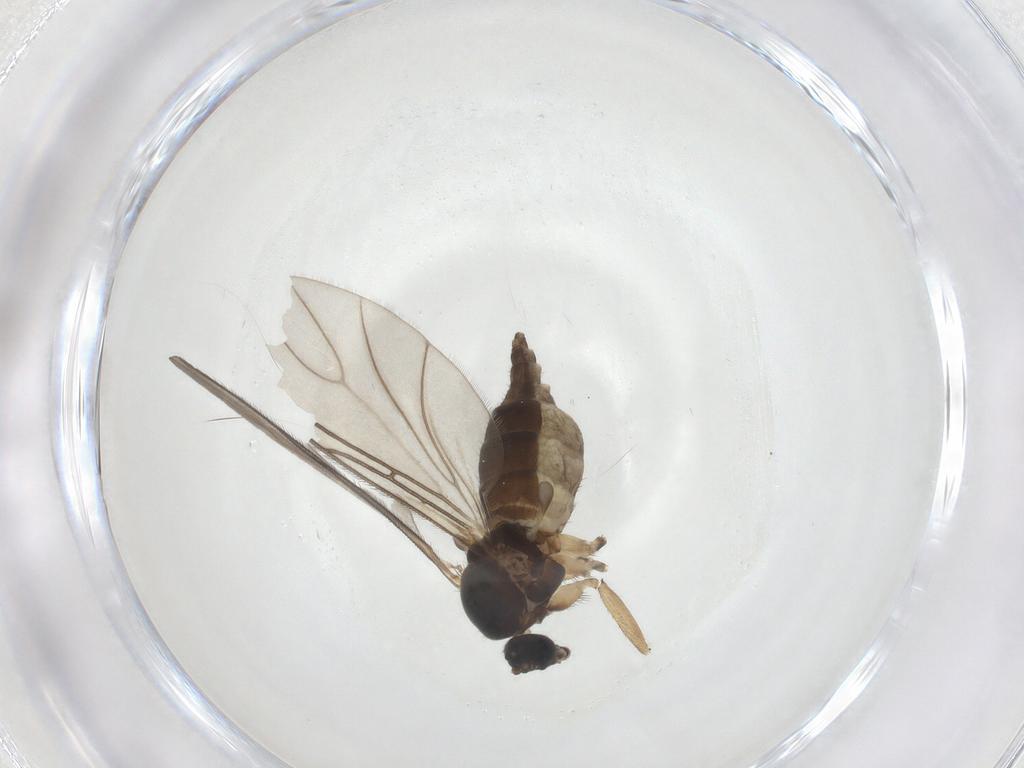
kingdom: Animalia
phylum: Arthropoda
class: Insecta
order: Diptera
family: Sciaridae
